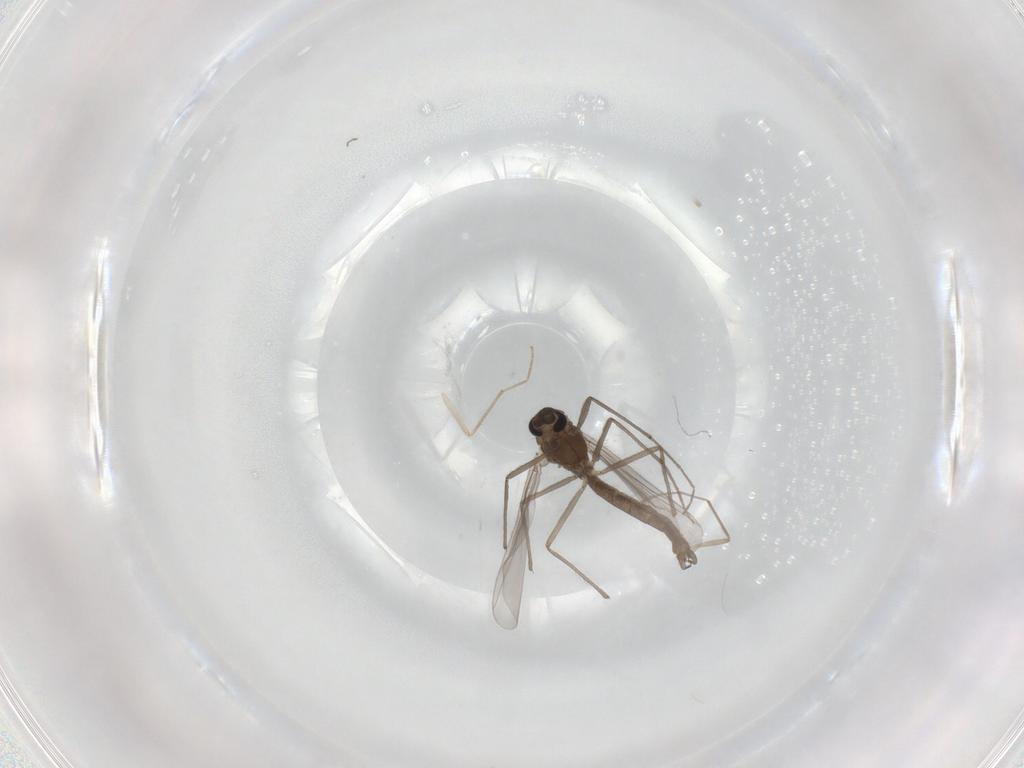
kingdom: Animalia
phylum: Arthropoda
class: Insecta
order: Diptera
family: Chironomidae
